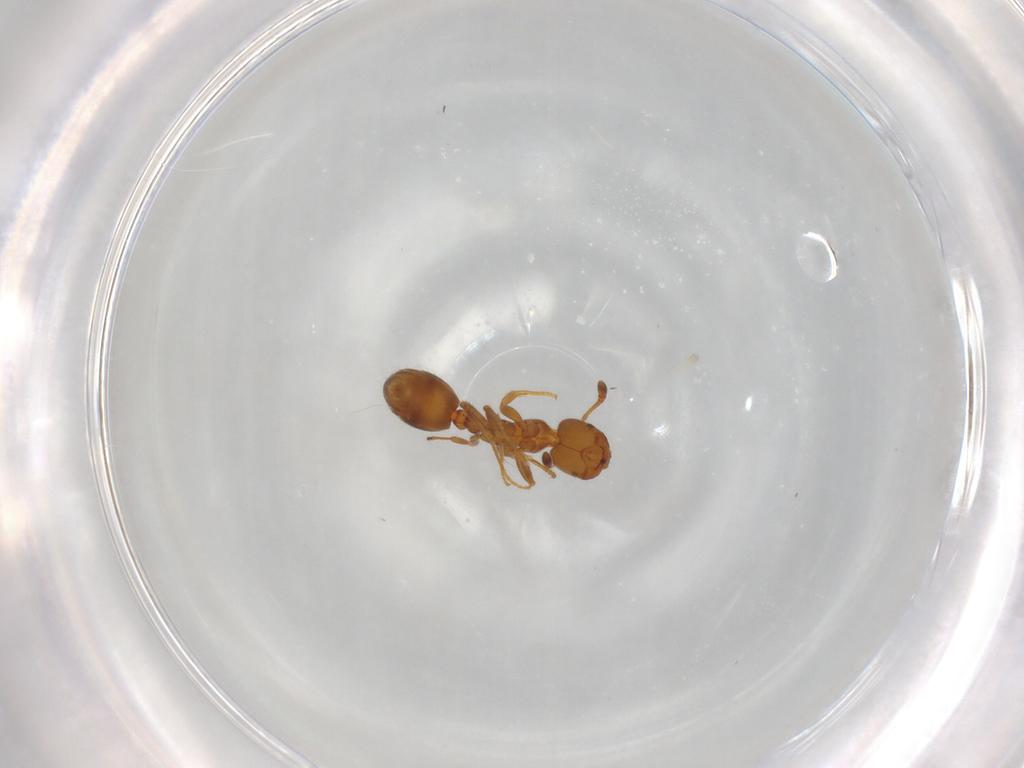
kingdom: Animalia
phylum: Arthropoda
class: Insecta
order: Hymenoptera
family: Formicidae
